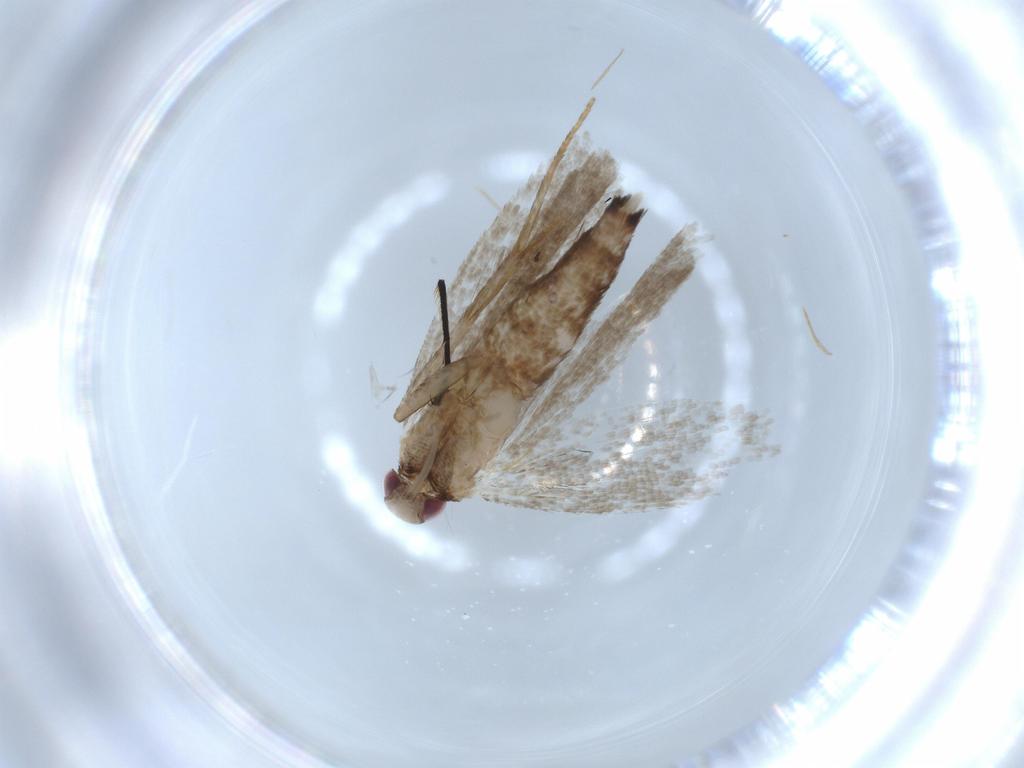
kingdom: Animalia
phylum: Arthropoda
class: Insecta
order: Lepidoptera
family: Gelechiidae
